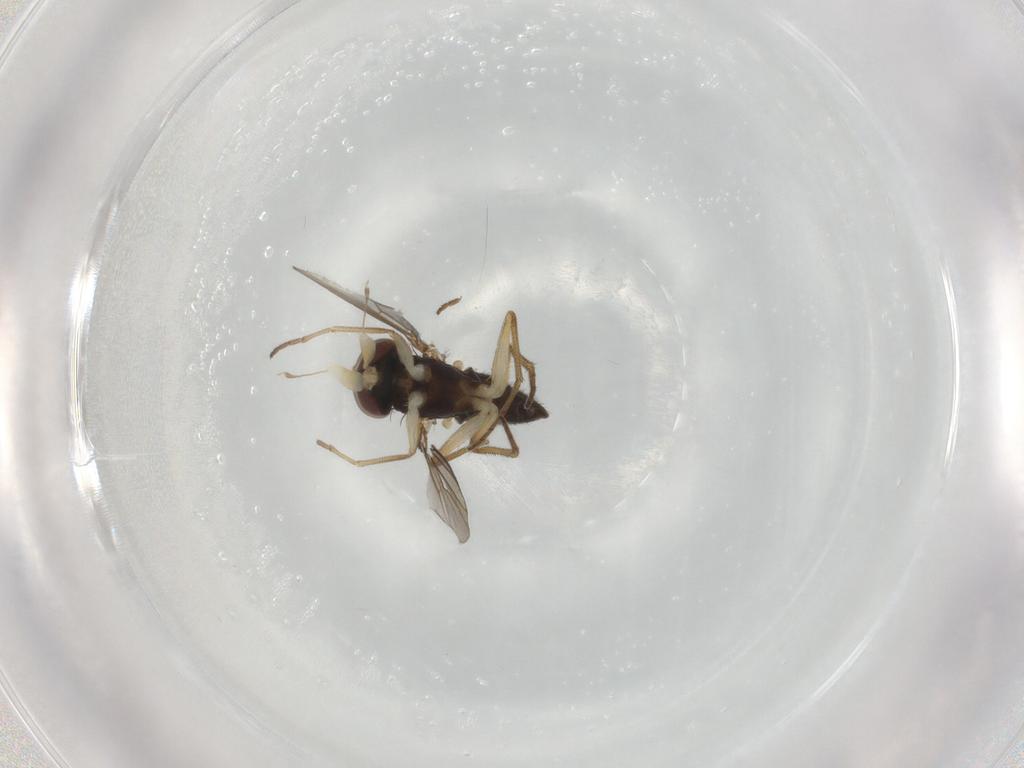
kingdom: Animalia
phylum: Arthropoda
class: Insecta
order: Diptera
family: Dolichopodidae
